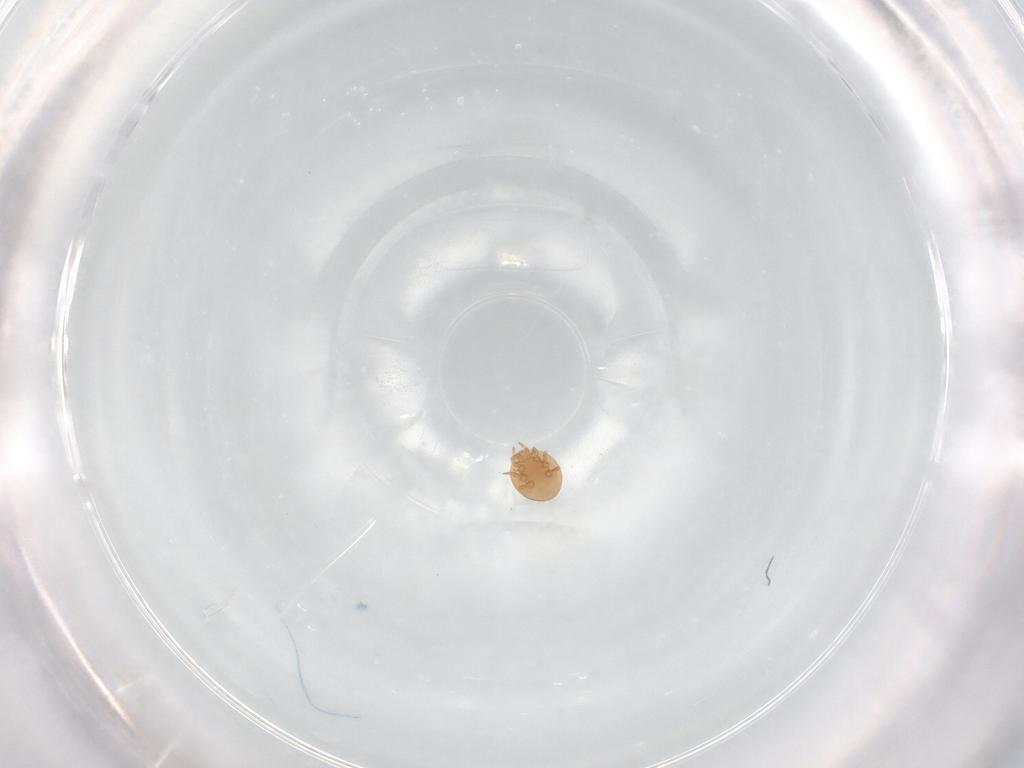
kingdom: Animalia
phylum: Arthropoda
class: Arachnida
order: Mesostigmata
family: Trematuridae
